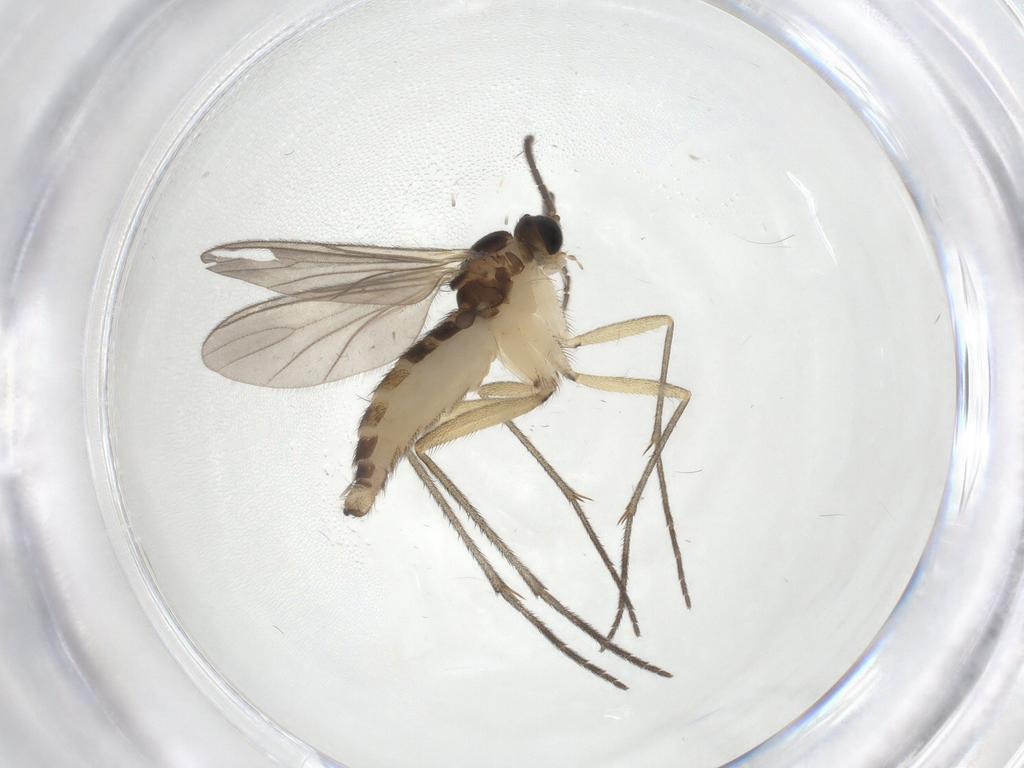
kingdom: Animalia
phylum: Arthropoda
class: Insecta
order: Diptera
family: Sciaridae
